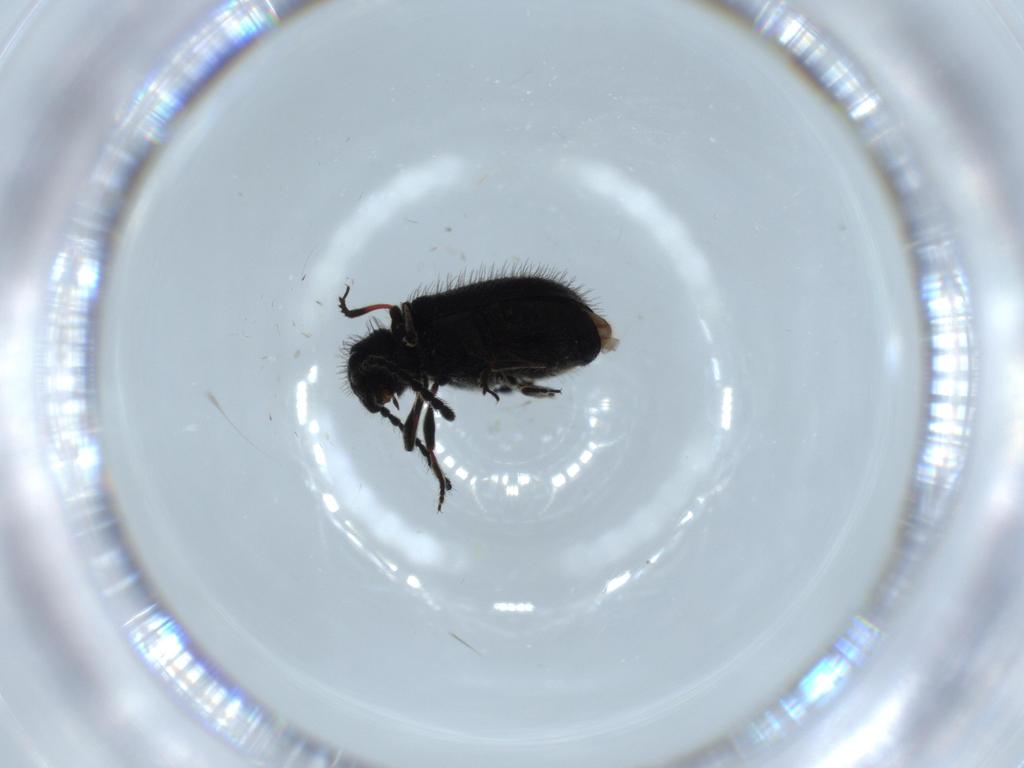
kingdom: Animalia
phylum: Arthropoda
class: Insecta
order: Coleoptera
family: Ptinidae
